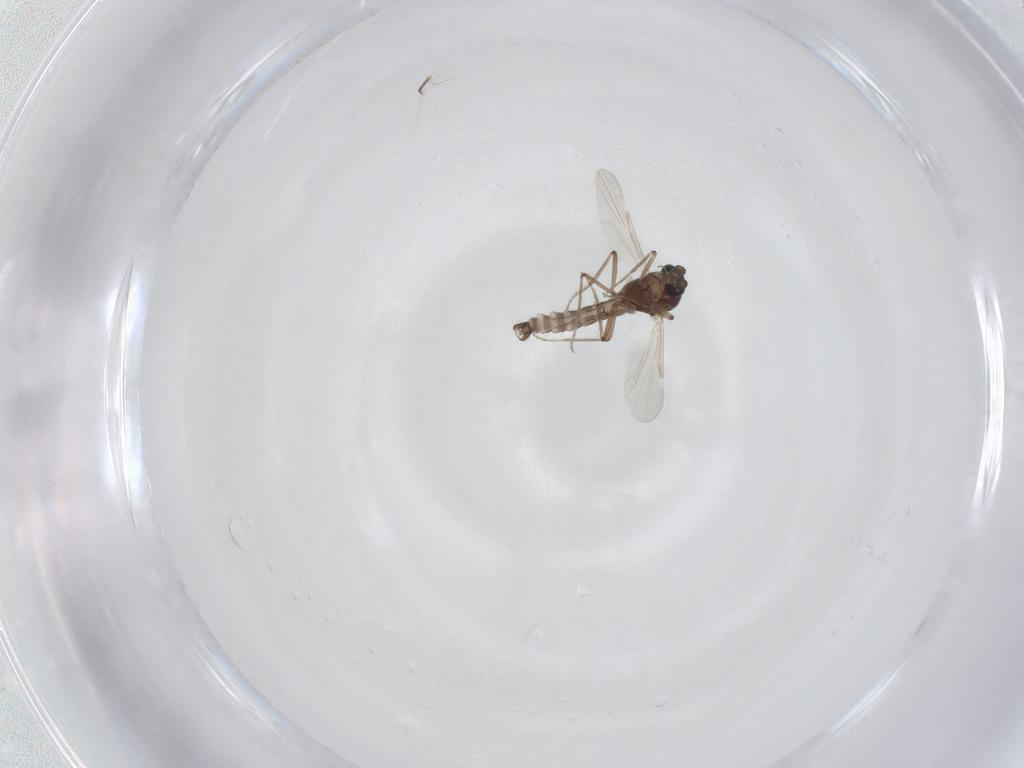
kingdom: Animalia
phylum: Arthropoda
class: Insecta
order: Diptera
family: Ceratopogonidae
